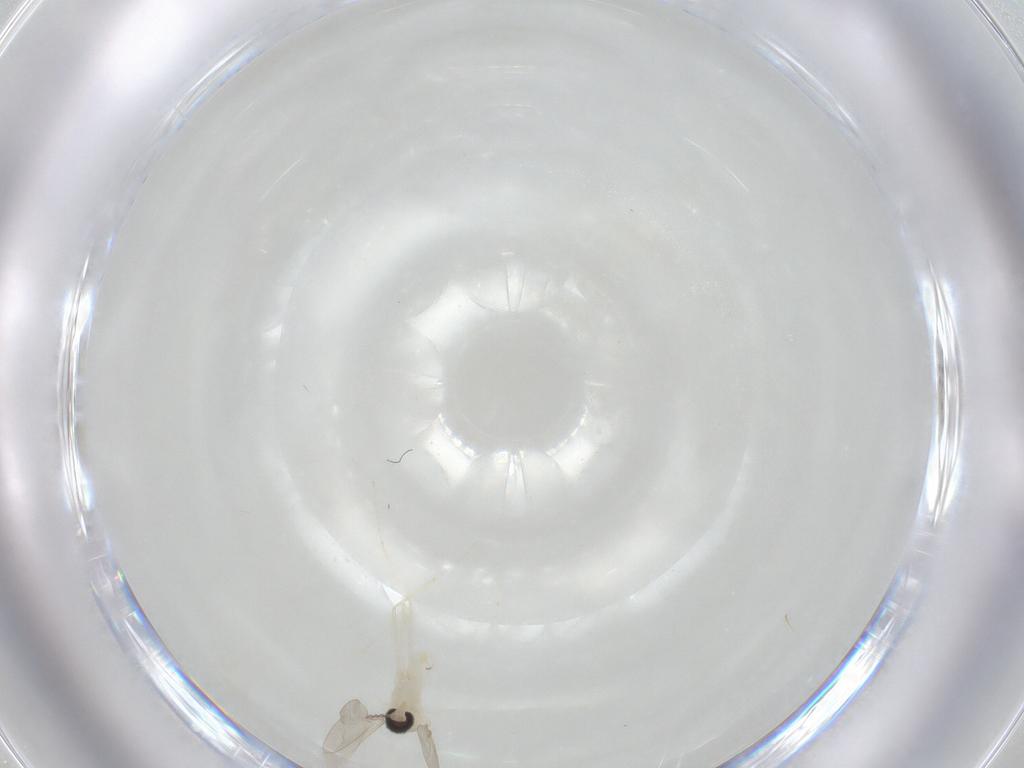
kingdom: Animalia
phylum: Arthropoda
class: Insecta
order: Diptera
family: Cecidomyiidae
